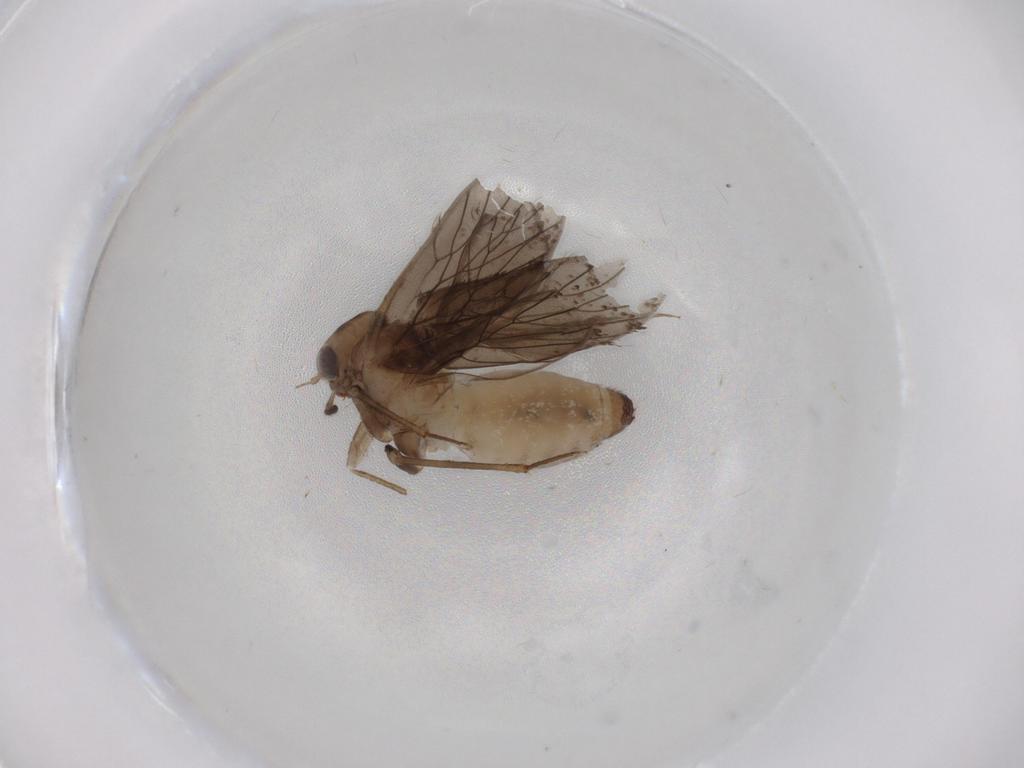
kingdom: Animalia
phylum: Arthropoda
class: Insecta
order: Psocodea
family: Lepidopsocidae
